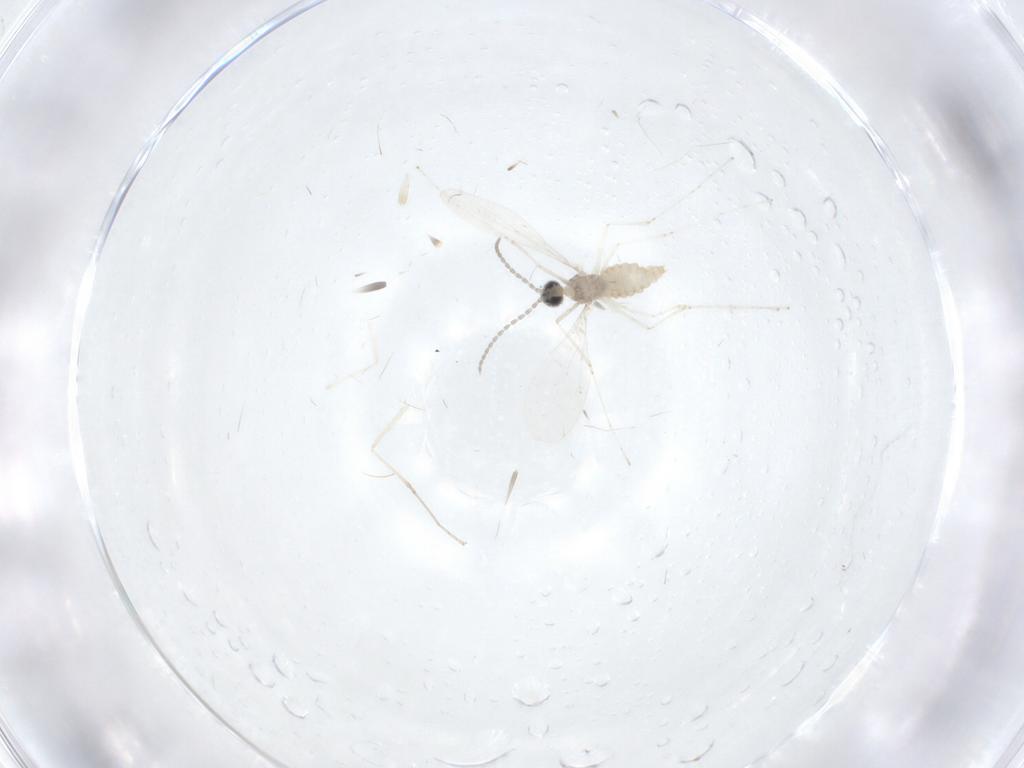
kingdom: Animalia
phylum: Arthropoda
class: Insecta
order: Diptera
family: Cecidomyiidae
